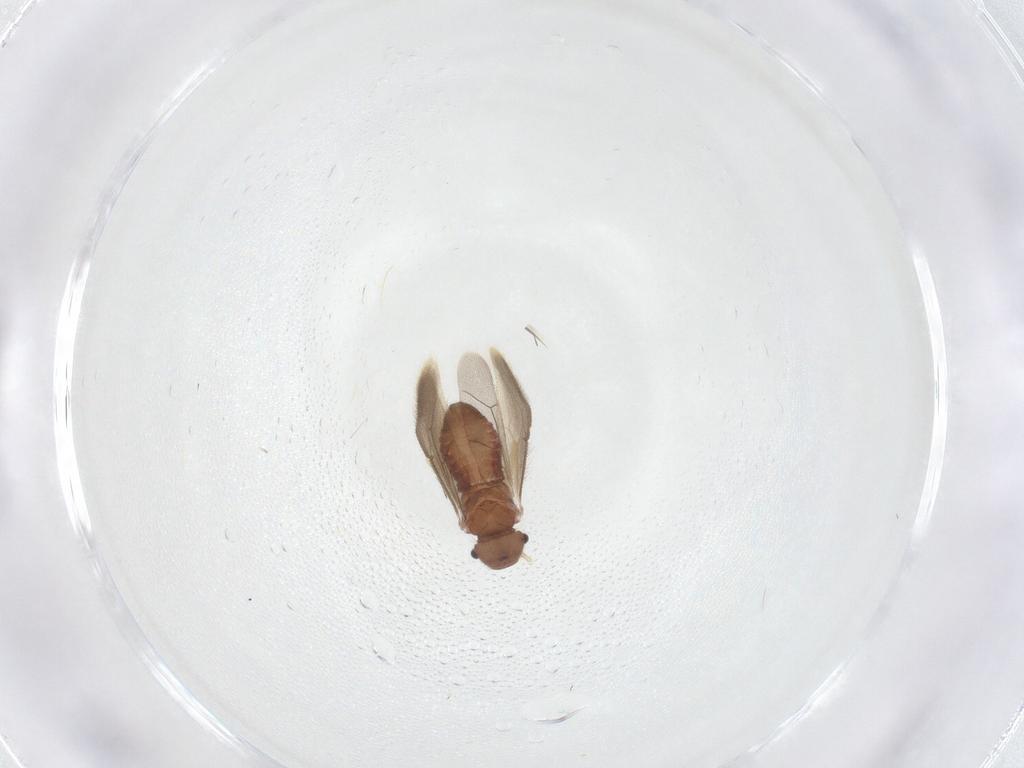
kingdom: Animalia
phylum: Arthropoda
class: Insecta
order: Psocodea
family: Archipsocidae
